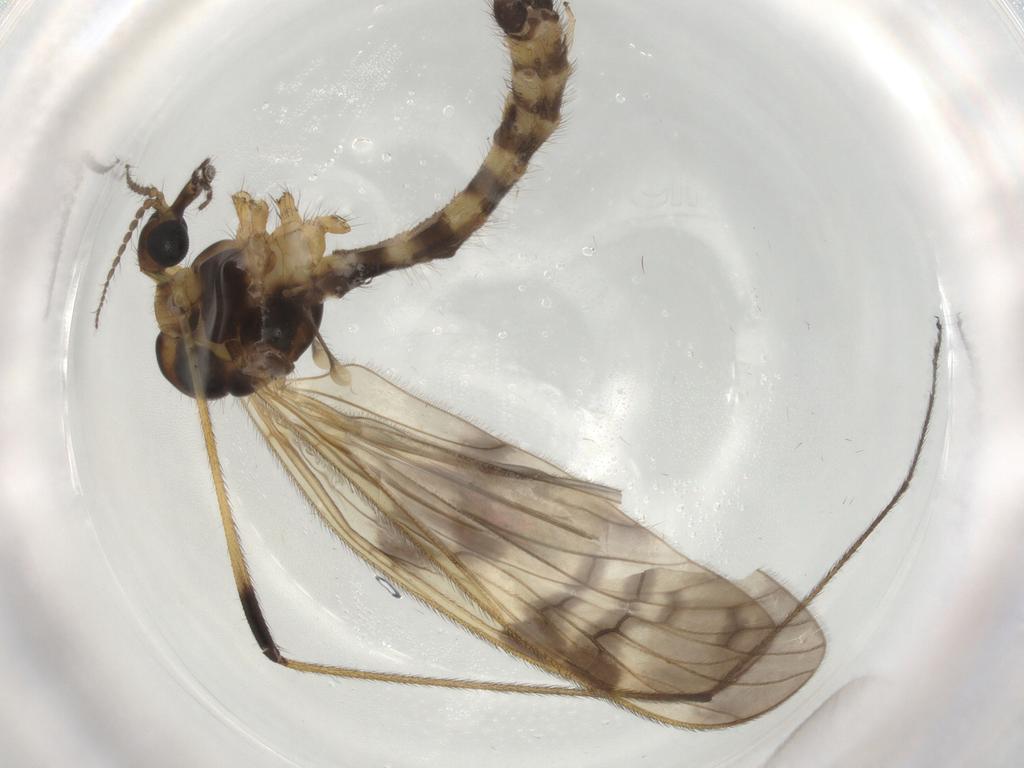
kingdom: Animalia
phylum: Arthropoda
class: Insecta
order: Diptera
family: Limoniidae
